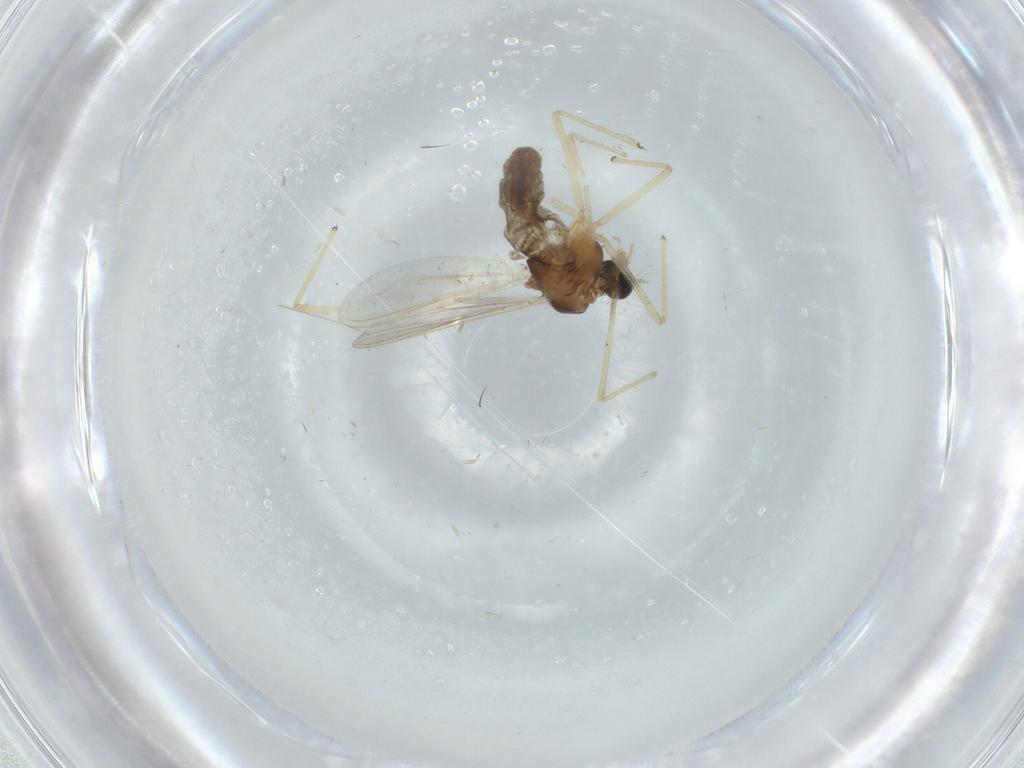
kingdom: Animalia
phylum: Arthropoda
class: Insecta
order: Diptera
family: Chironomidae
